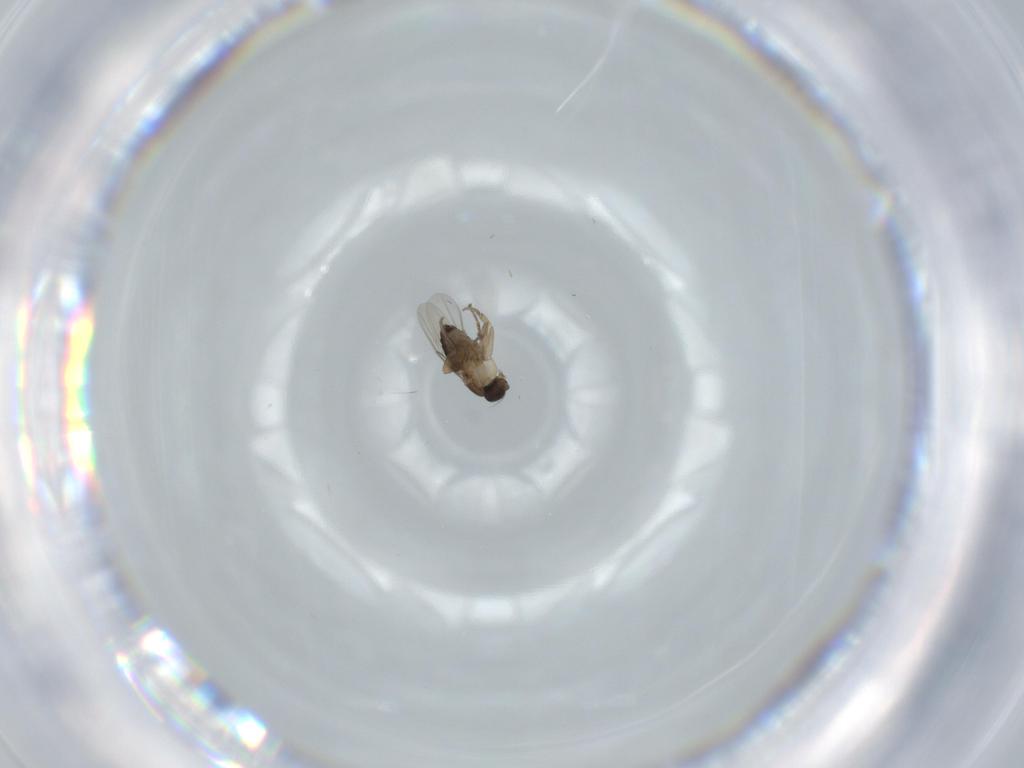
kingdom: Animalia
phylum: Arthropoda
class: Insecta
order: Diptera
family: Phoridae
